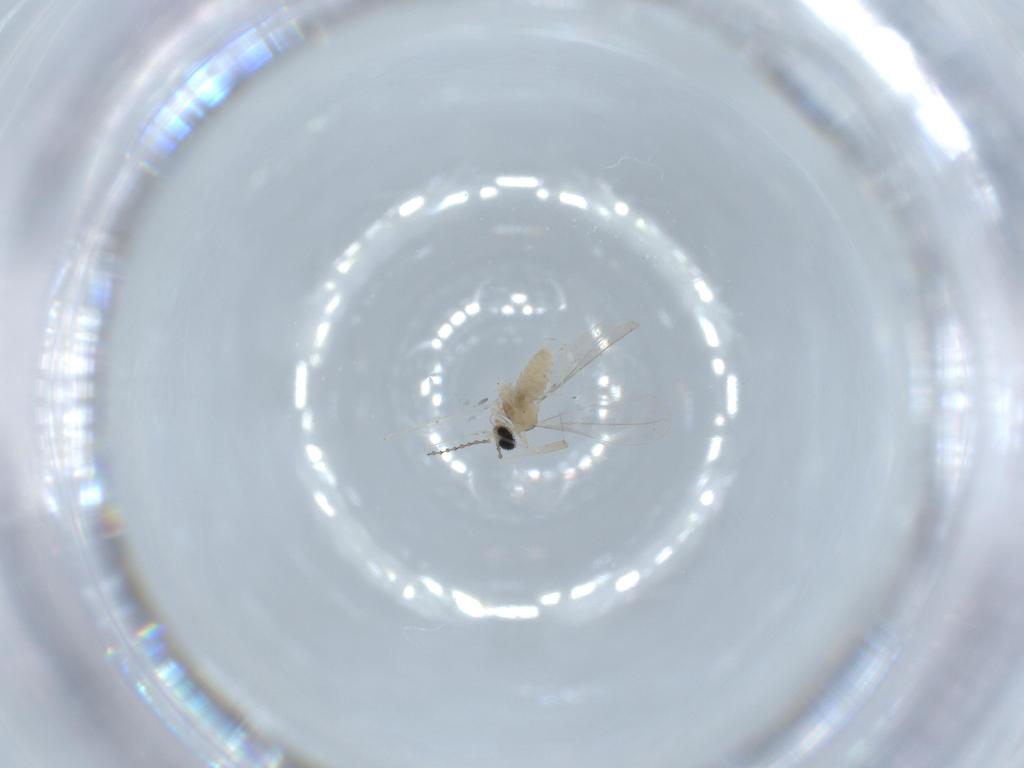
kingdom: Animalia
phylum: Arthropoda
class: Insecta
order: Diptera
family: Cecidomyiidae
